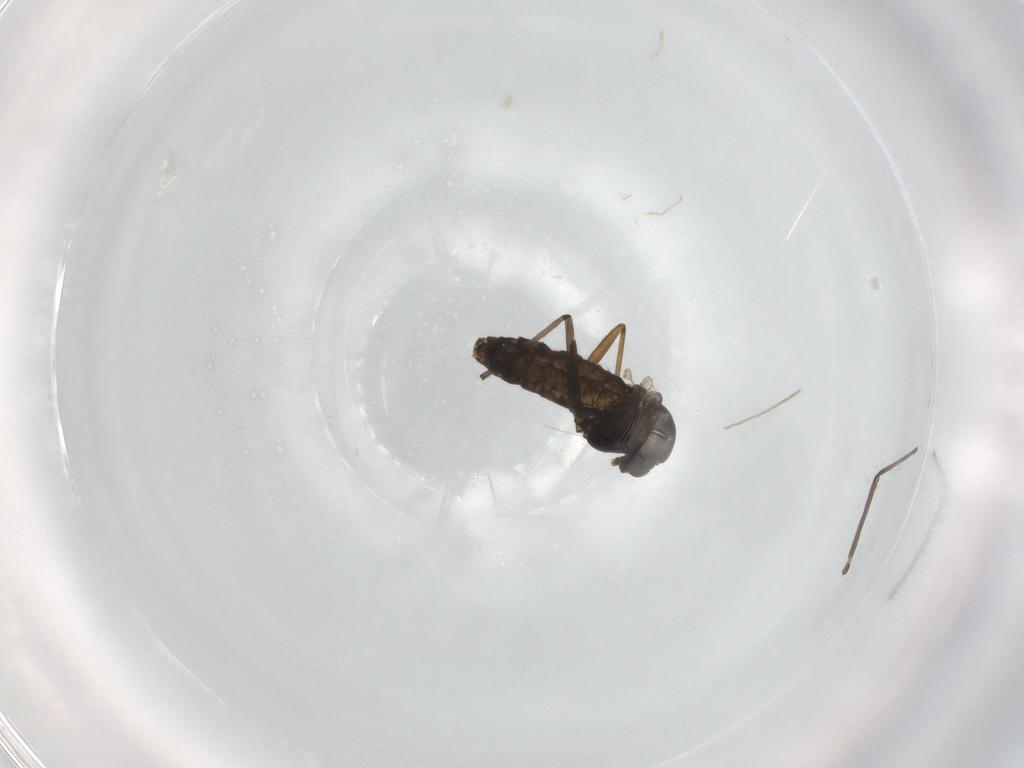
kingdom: Animalia
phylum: Arthropoda
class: Insecta
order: Diptera
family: Chironomidae
